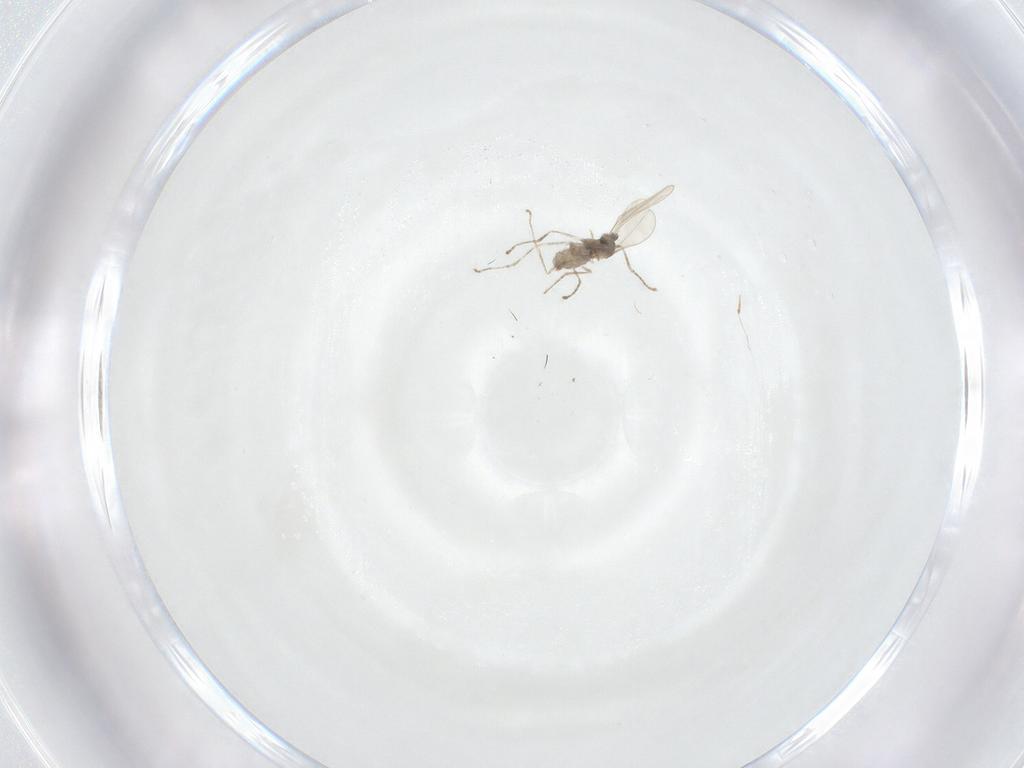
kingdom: Animalia
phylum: Arthropoda
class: Insecta
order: Diptera
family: Cecidomyiidae
